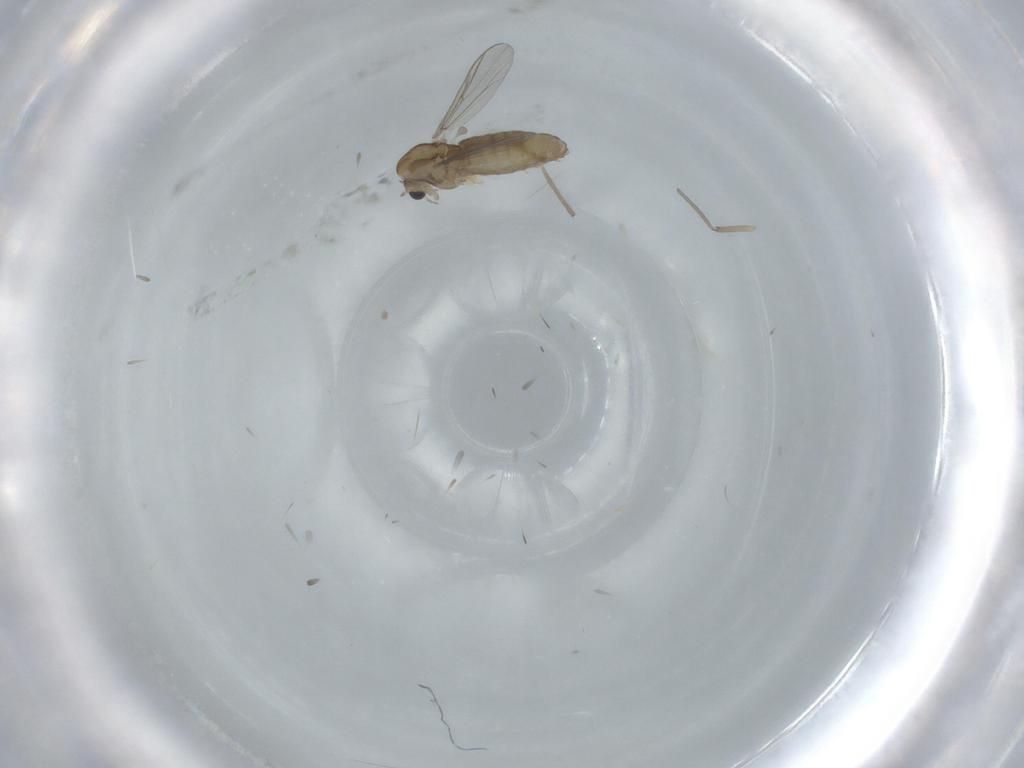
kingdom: Animalia
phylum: Arthropoda
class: Insecta
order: Diptera
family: Chironomidae
